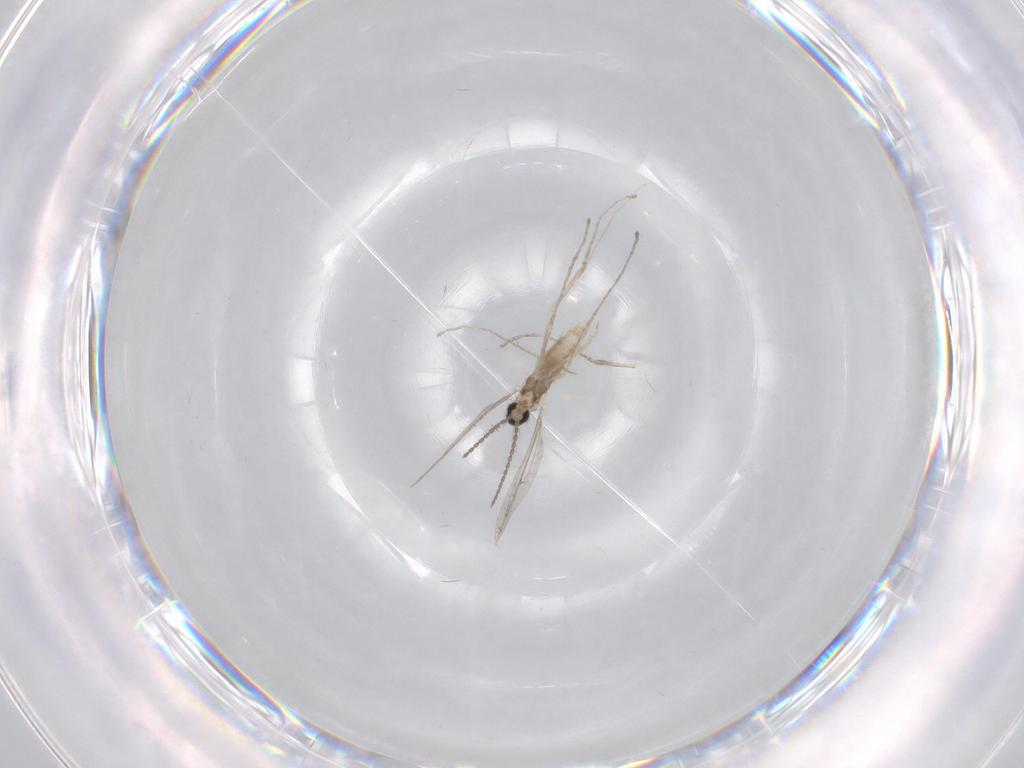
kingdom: Animalia
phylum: Arthropoda
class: Insecta
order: Diptera
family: Cecidomyiidae
